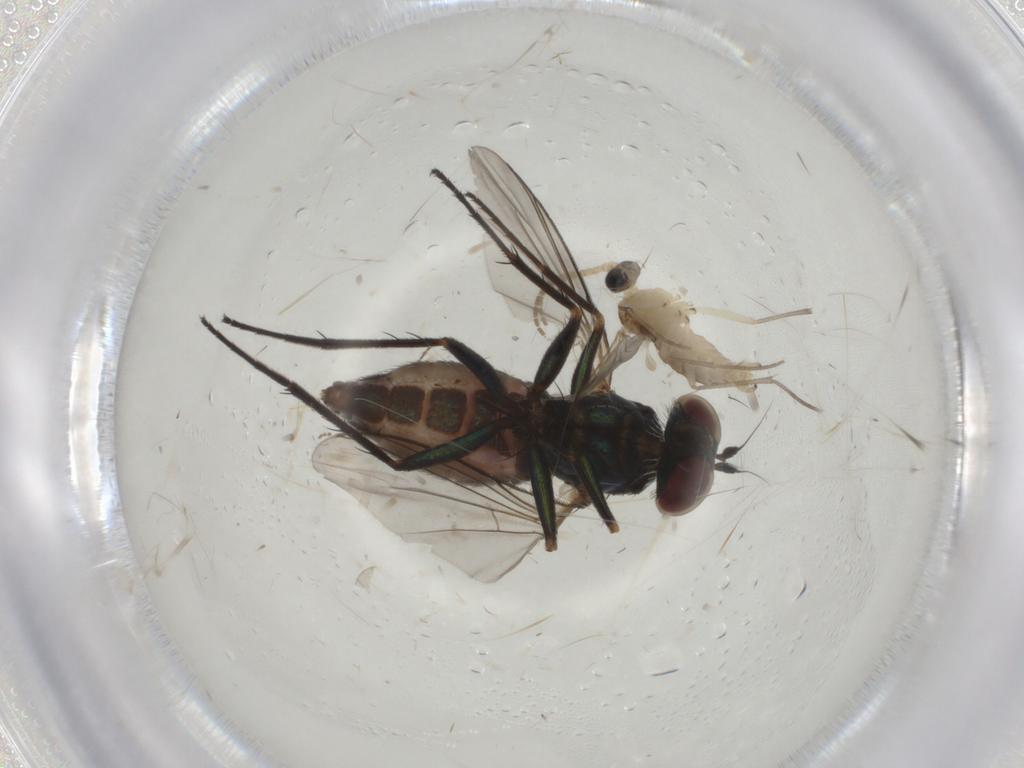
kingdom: Animalia
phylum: Arthropoda
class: Insecta
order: Diptera
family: Dolichopodidae
